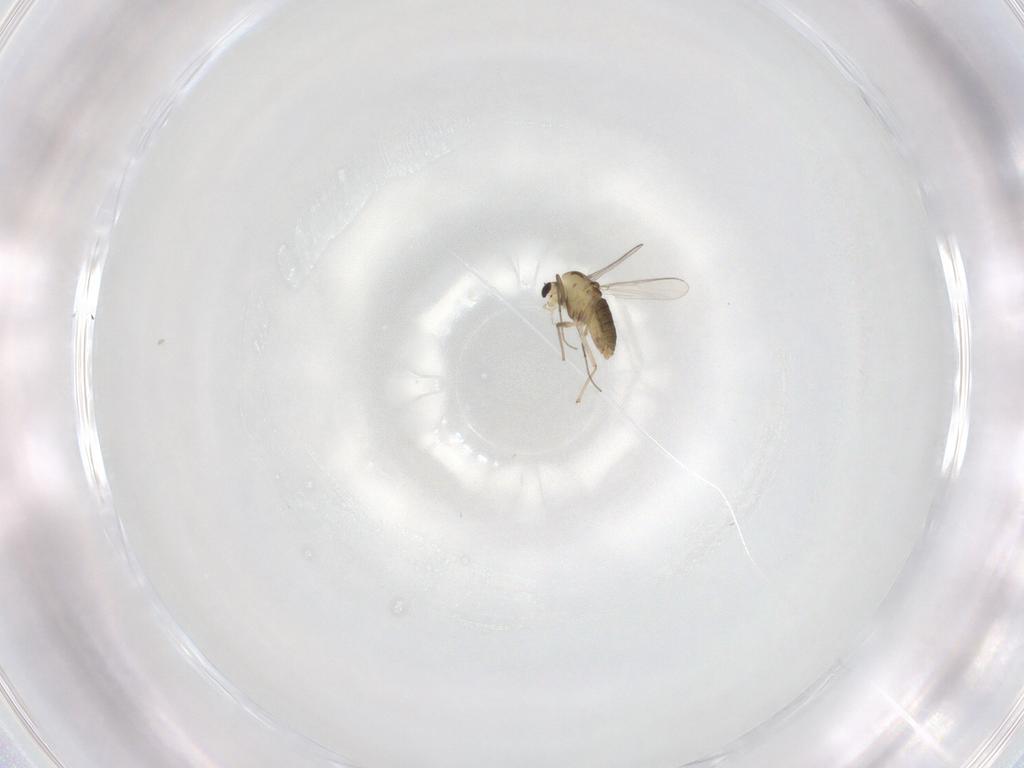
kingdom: Animalia
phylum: Arthropoda
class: Insecta
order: Diptera
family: Chironomidae
